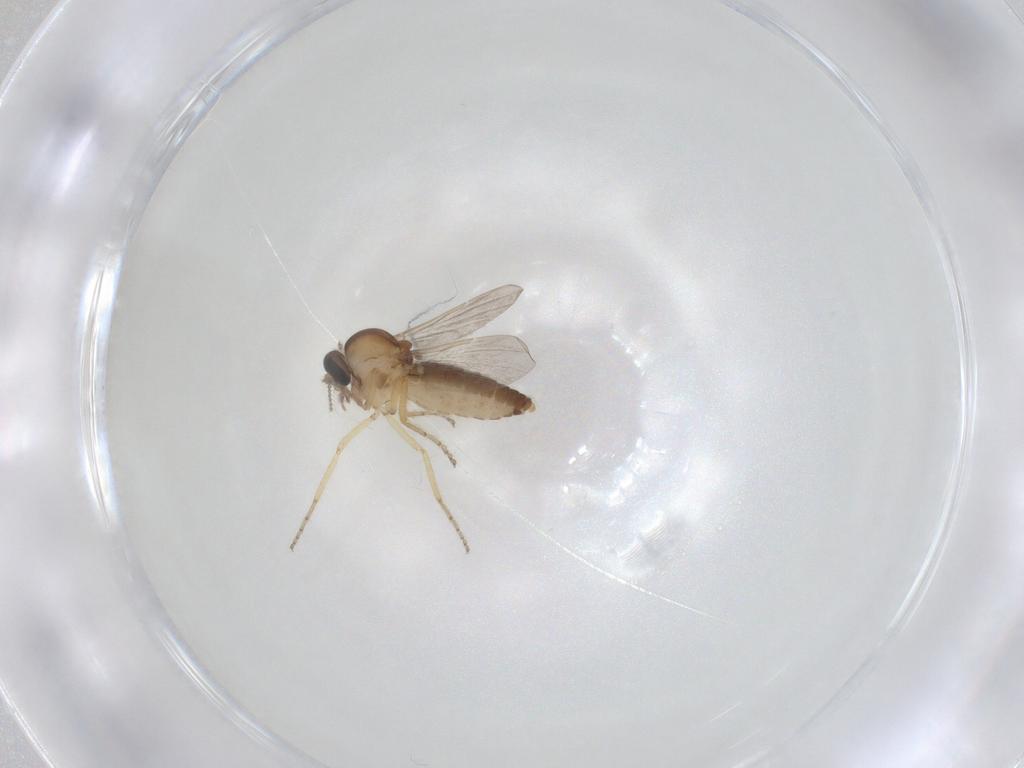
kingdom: Animalia
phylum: Arthropoda
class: Insecta
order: Diptera
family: Ceratopogonidae
